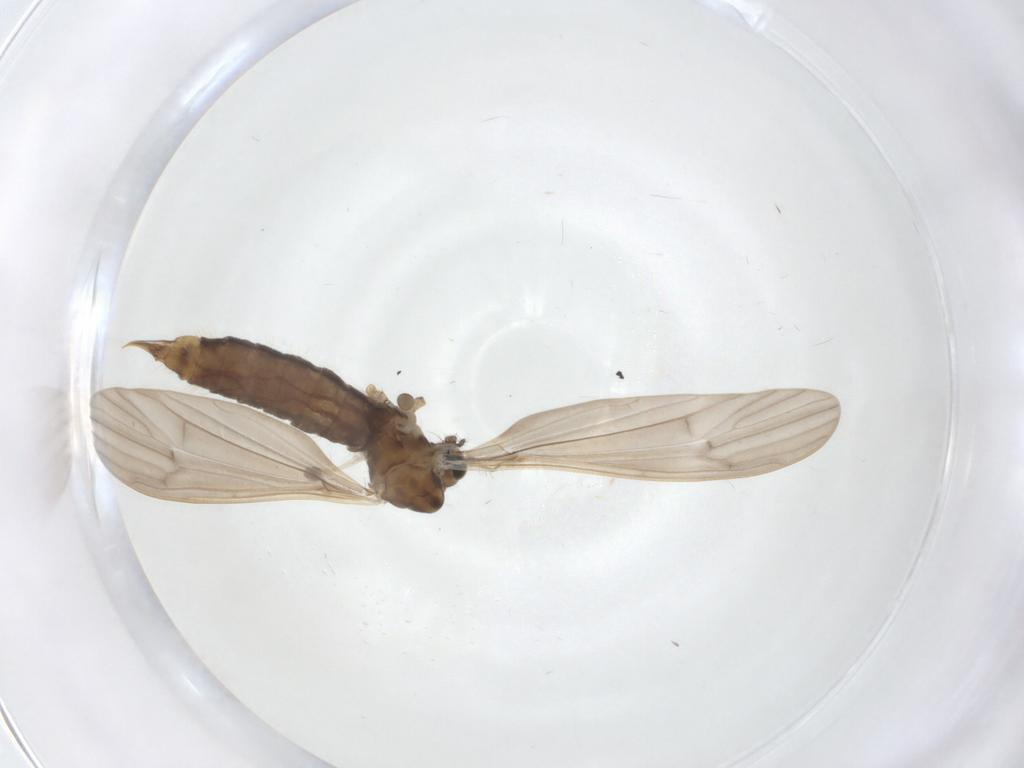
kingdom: Animalia
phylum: Arthropoda
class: Insecta
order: Diptera
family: Limoniidae
